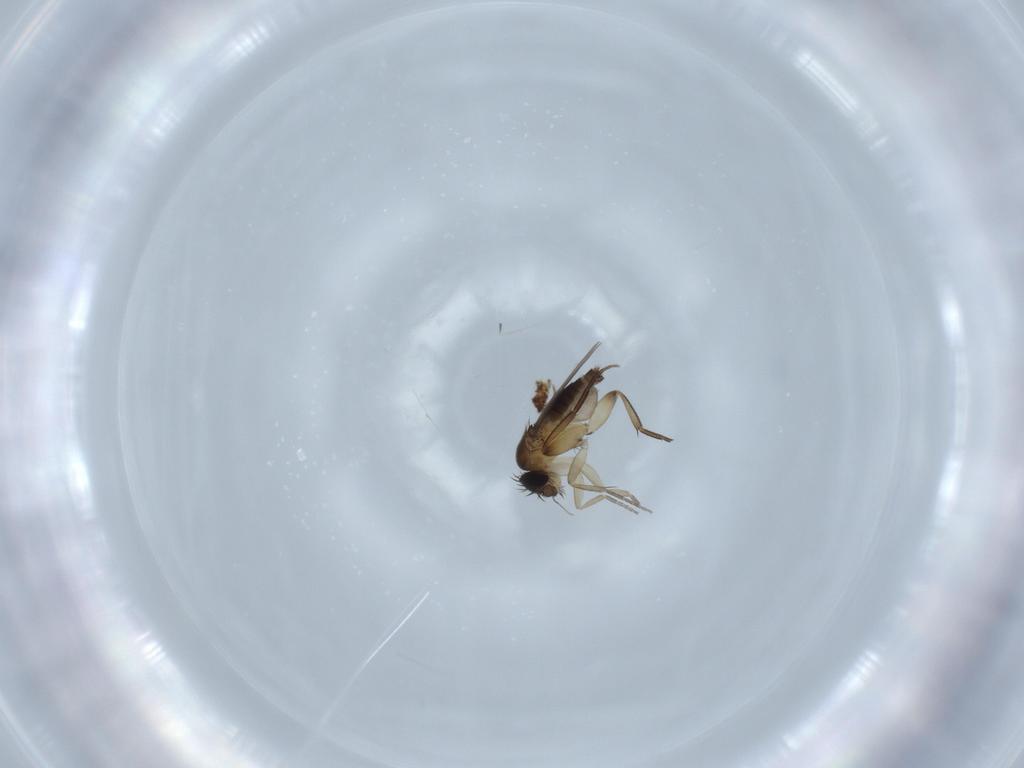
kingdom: Animalia
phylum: Arthropoda
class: Insecta
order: Diptera
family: Phoridae
